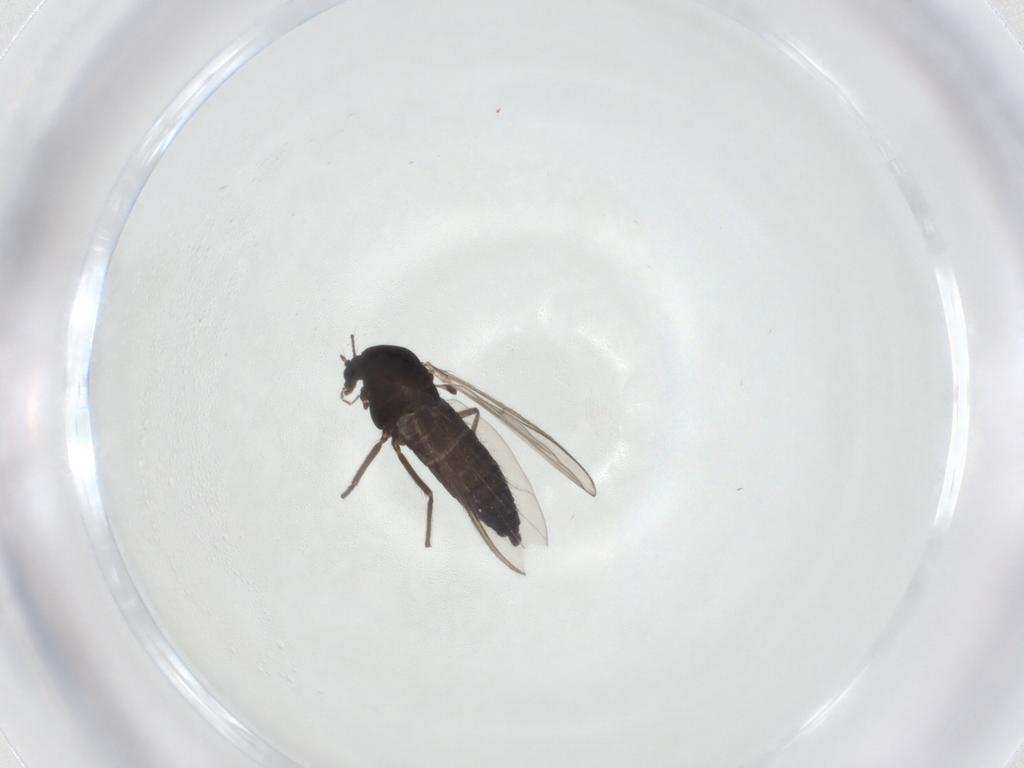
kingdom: Animalia
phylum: Arthropoda
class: Insecta
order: Diptera
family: Chironomidae
